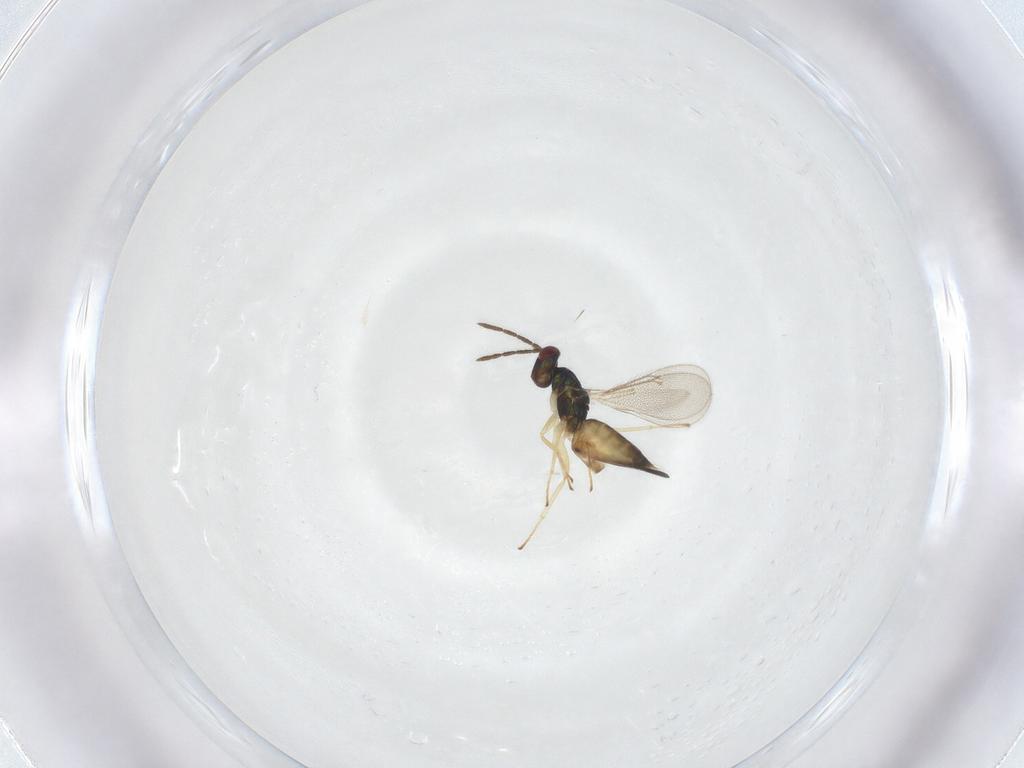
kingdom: Animalia
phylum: Arthropoda
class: Insecta
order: Hymenoptera
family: Eulophidae
